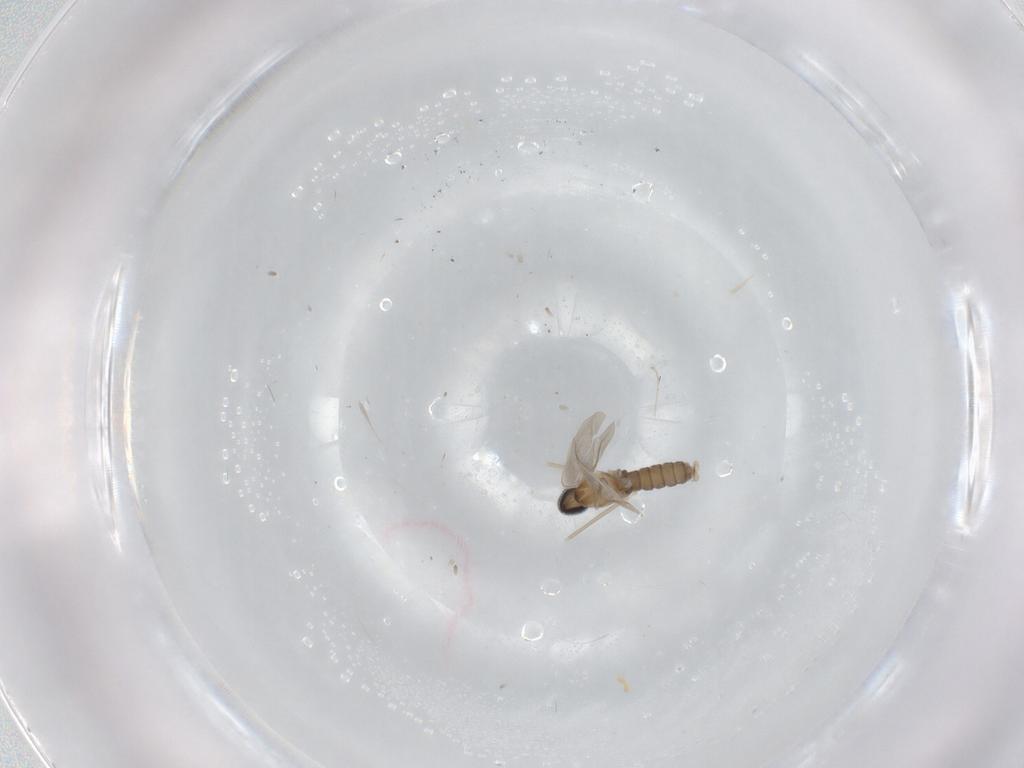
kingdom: Animalia
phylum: Arthropoda
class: Insecta
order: Diptera
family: Cecidomyiidae
